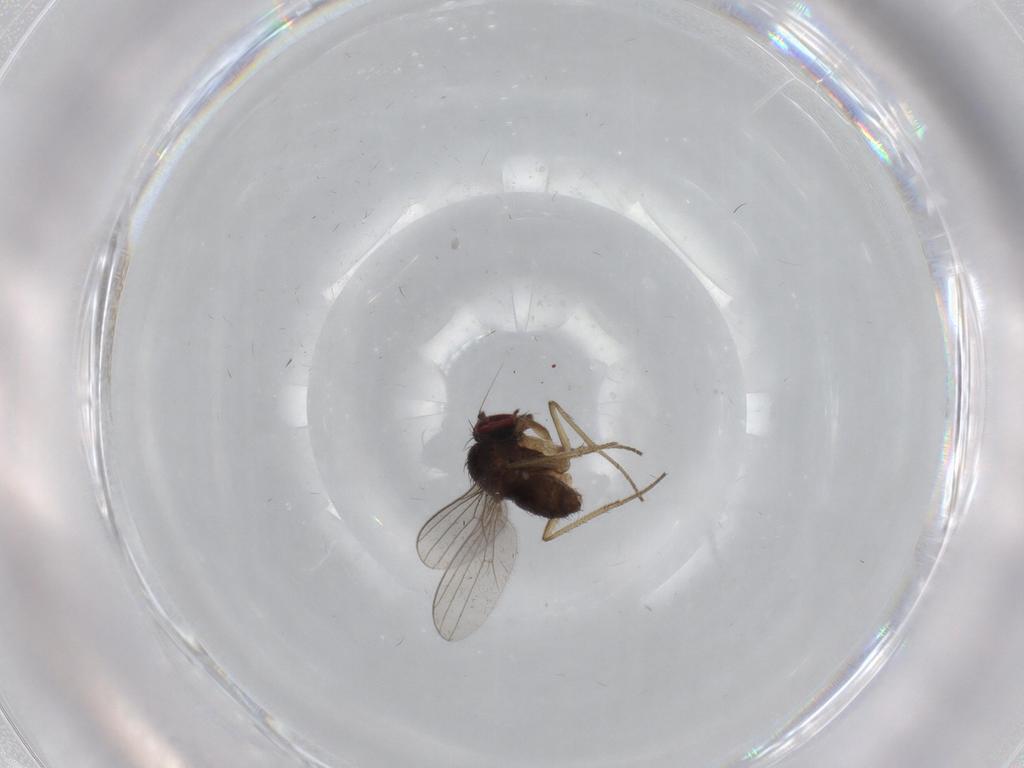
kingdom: Animalia
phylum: Arthropoda
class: Insecta
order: Diptera
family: Dolichopodidae
